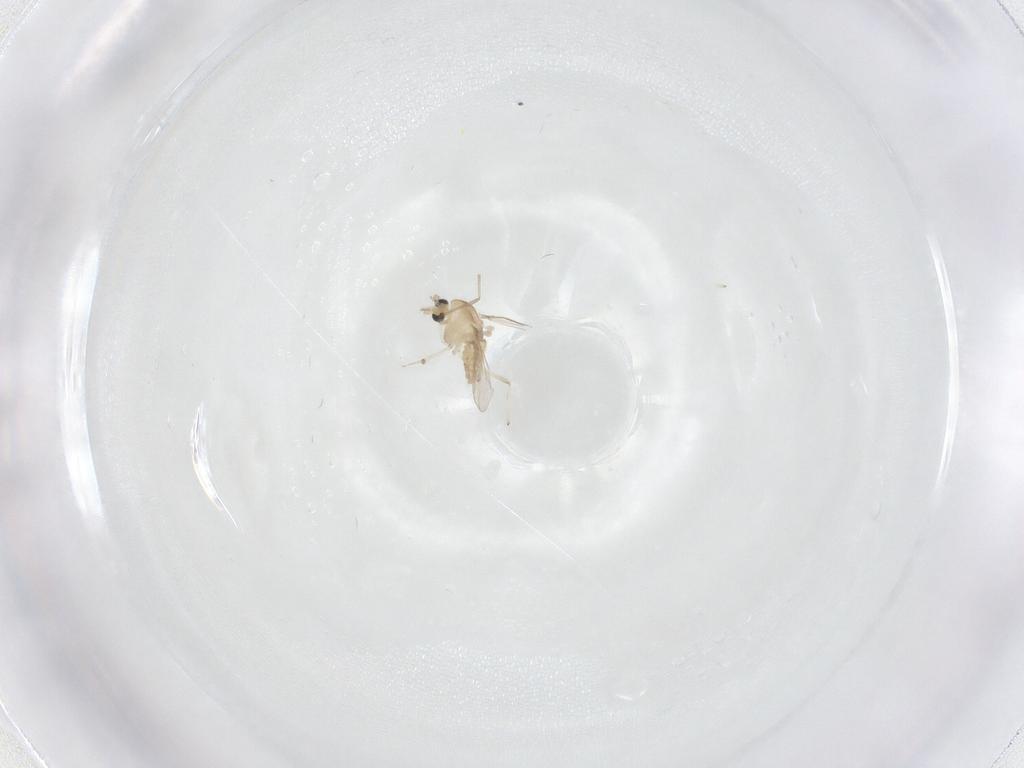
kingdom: Animalia
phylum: Arthropoda
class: Insecta
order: Diptera
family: Chironomidae
